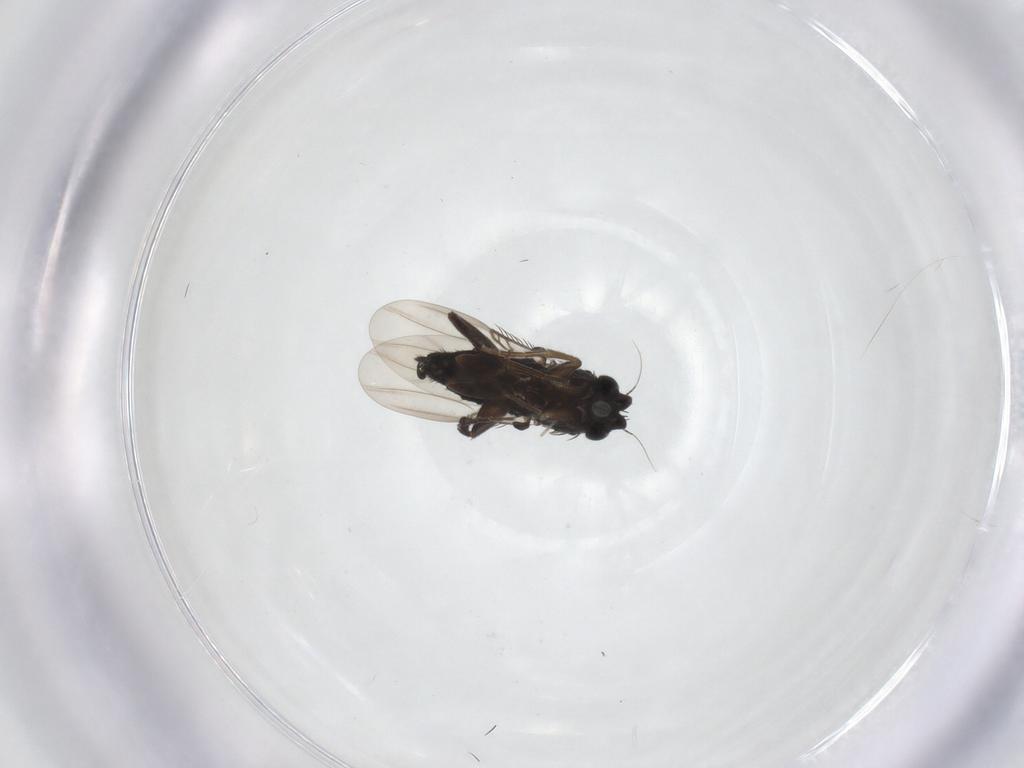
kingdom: Animalia
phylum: Arthropoda
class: Insecta
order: Diptera
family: Phoridae
